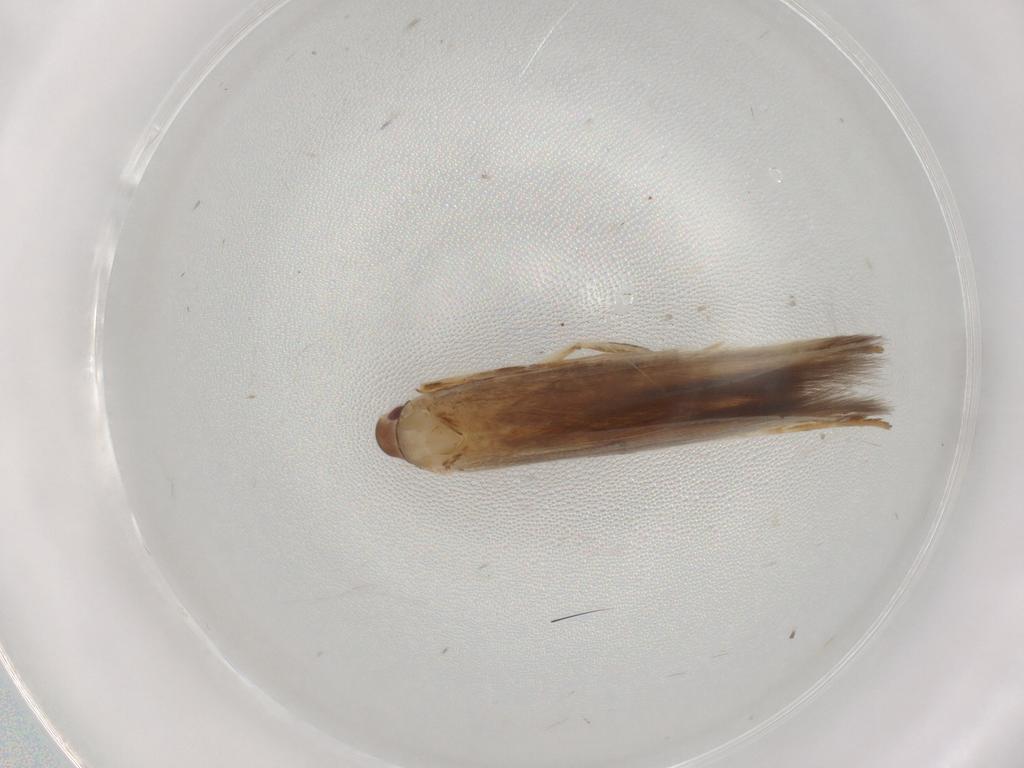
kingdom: Animalia
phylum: Arthropoda
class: Insecta
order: Lepidoptera
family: Cosmopterigidae
